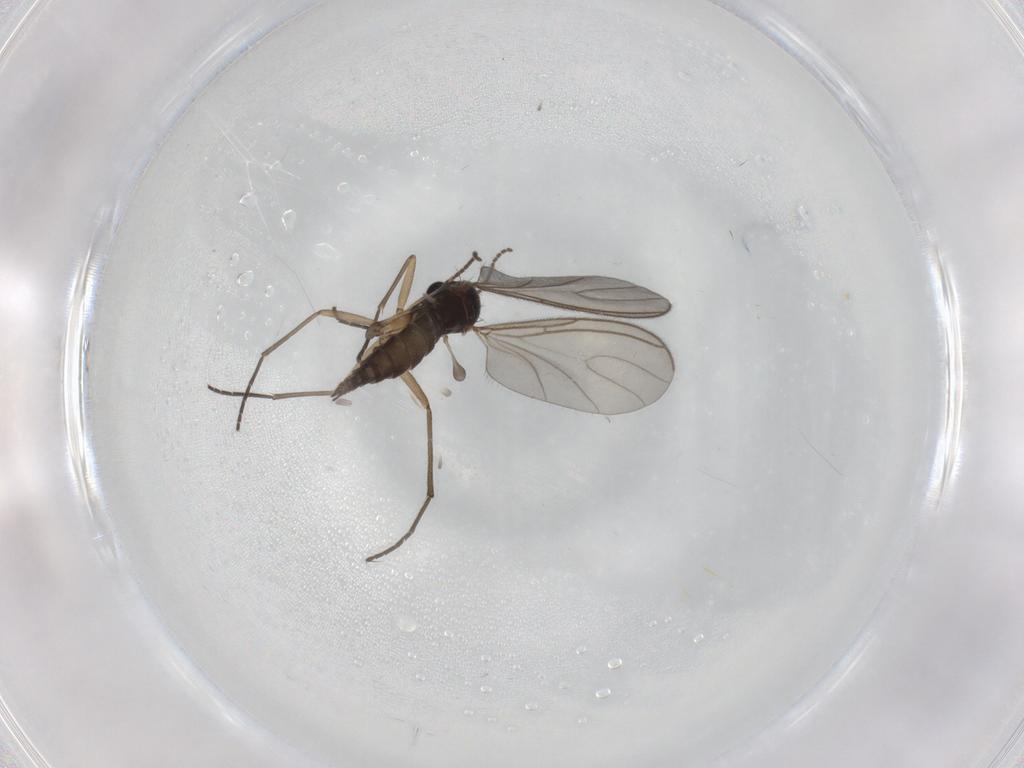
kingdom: Animalia
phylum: Arthropoda
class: Insecta
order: Diptera
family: Sciaridae
